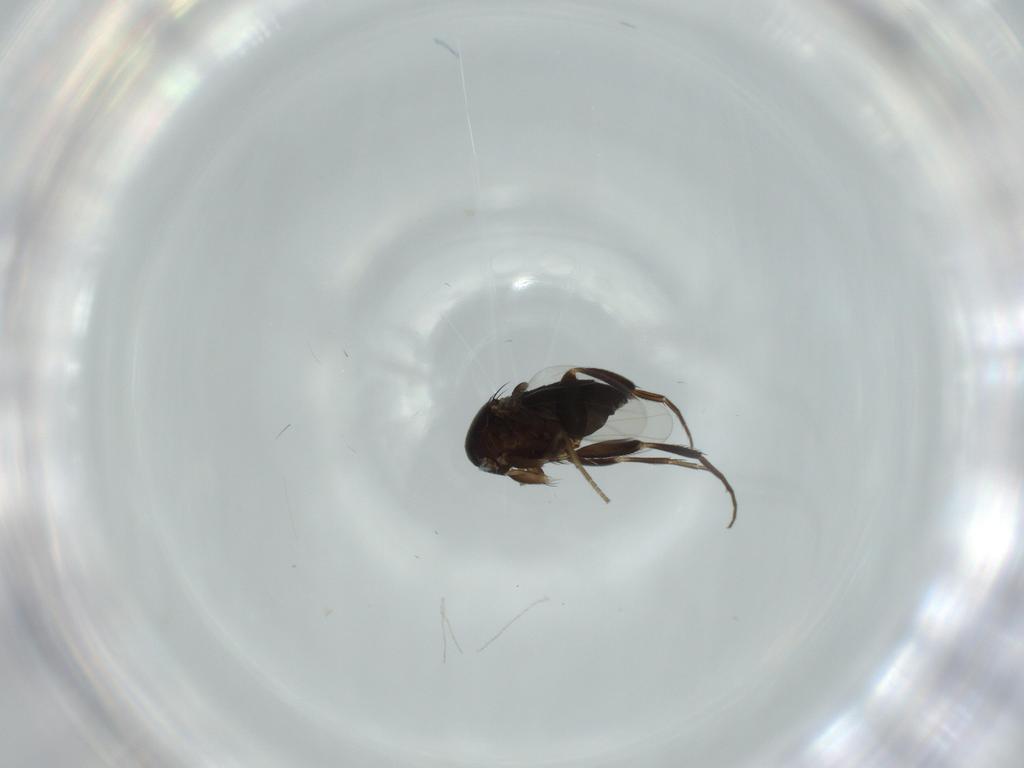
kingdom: Animalia
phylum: Arthropoda
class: Insecta
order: Diptera
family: Phoridae
